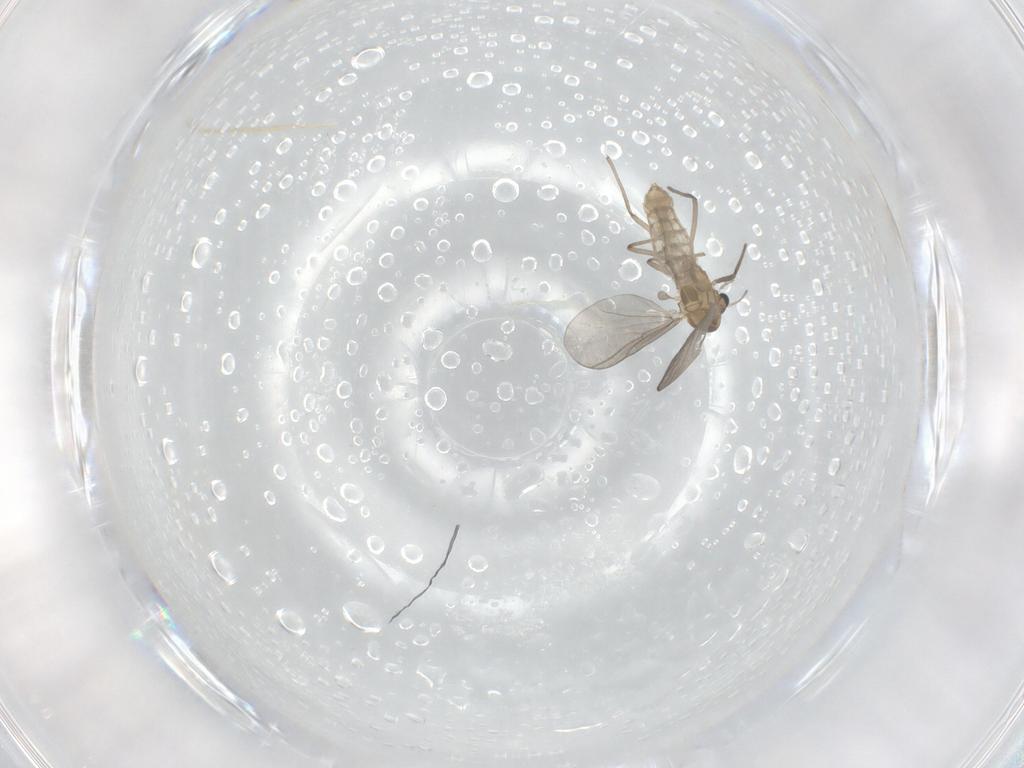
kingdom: Animalia
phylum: Arthropoda
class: Insecta
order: Diptera
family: Chironomidae
